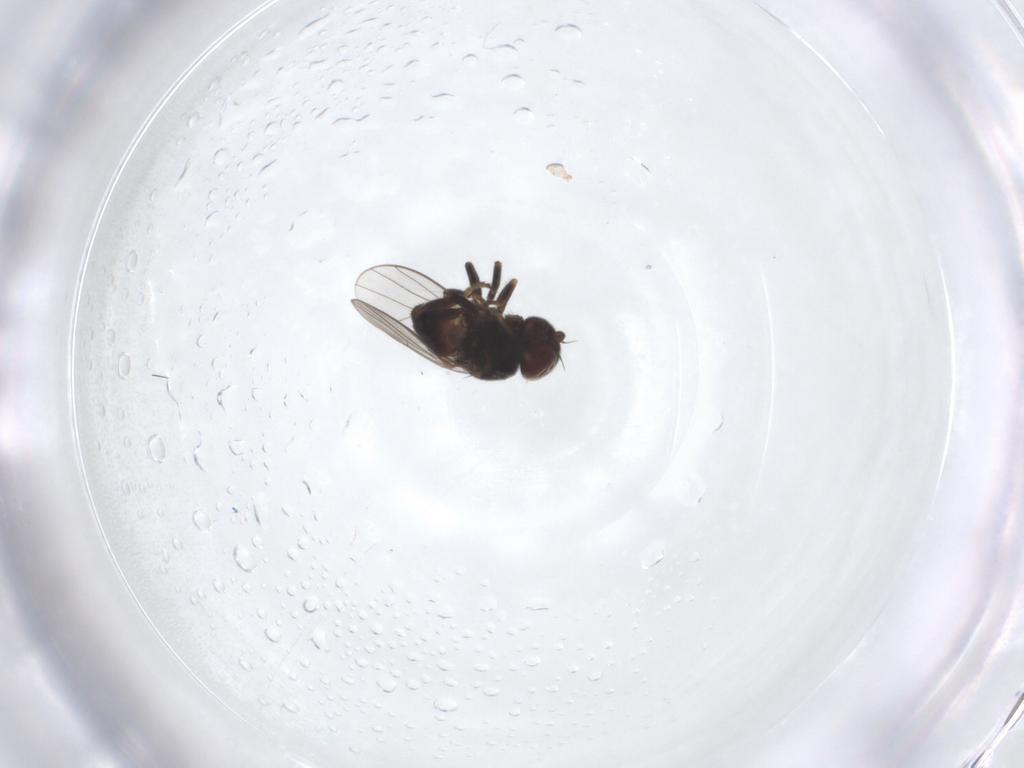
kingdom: Animalia
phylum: Arthropoda
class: Insecta
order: Diptera
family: Chloropidae
